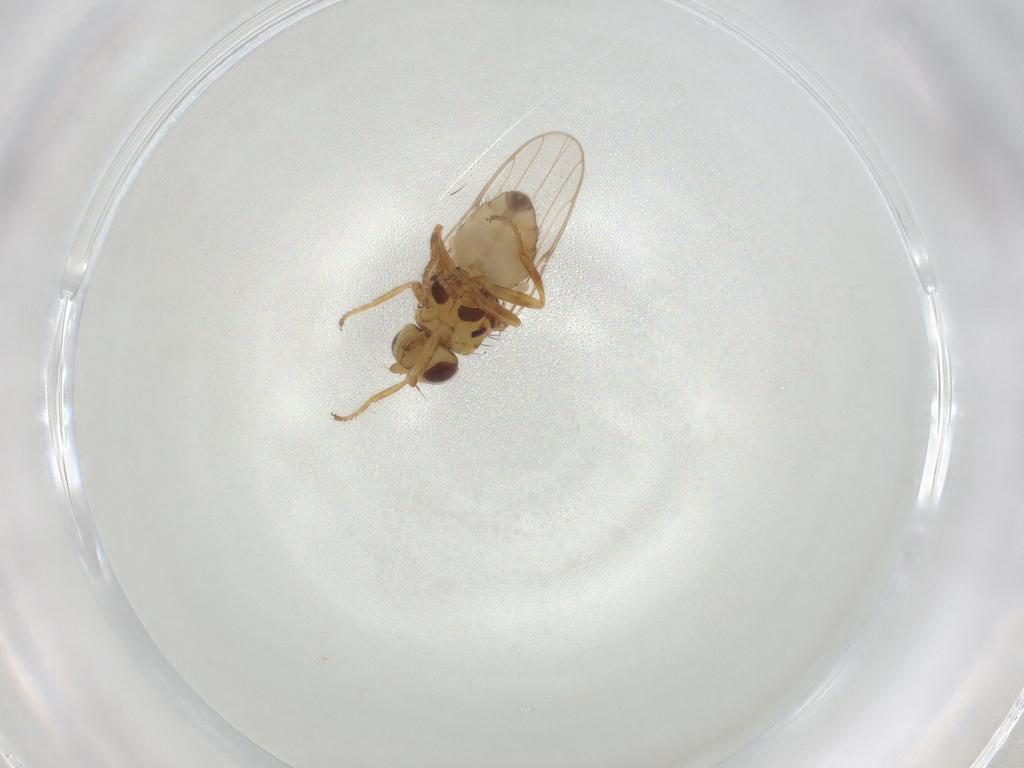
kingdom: Animalia
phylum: Arthropoda
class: Insecta
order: Diptera
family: Chloropidae
